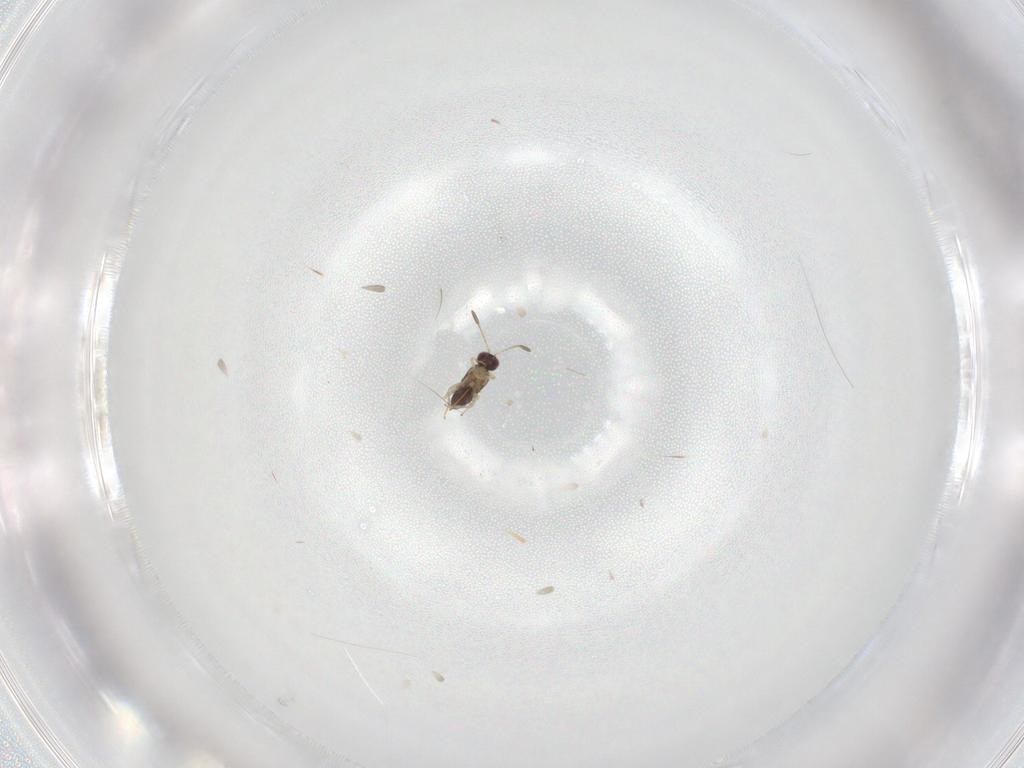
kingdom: Animalia
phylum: Arthropoda
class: Insecta
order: Hymenoptera
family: Mymaridae
